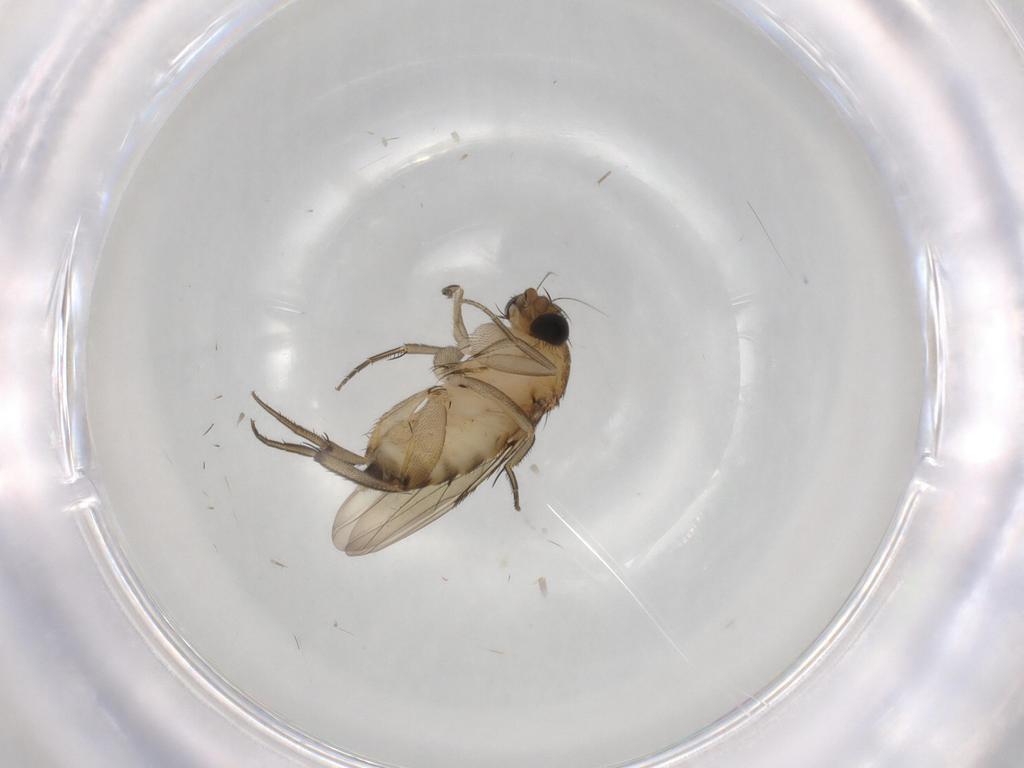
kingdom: Animalia
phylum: Arthropoda
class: Insecta
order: Diptera
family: Phoridae
